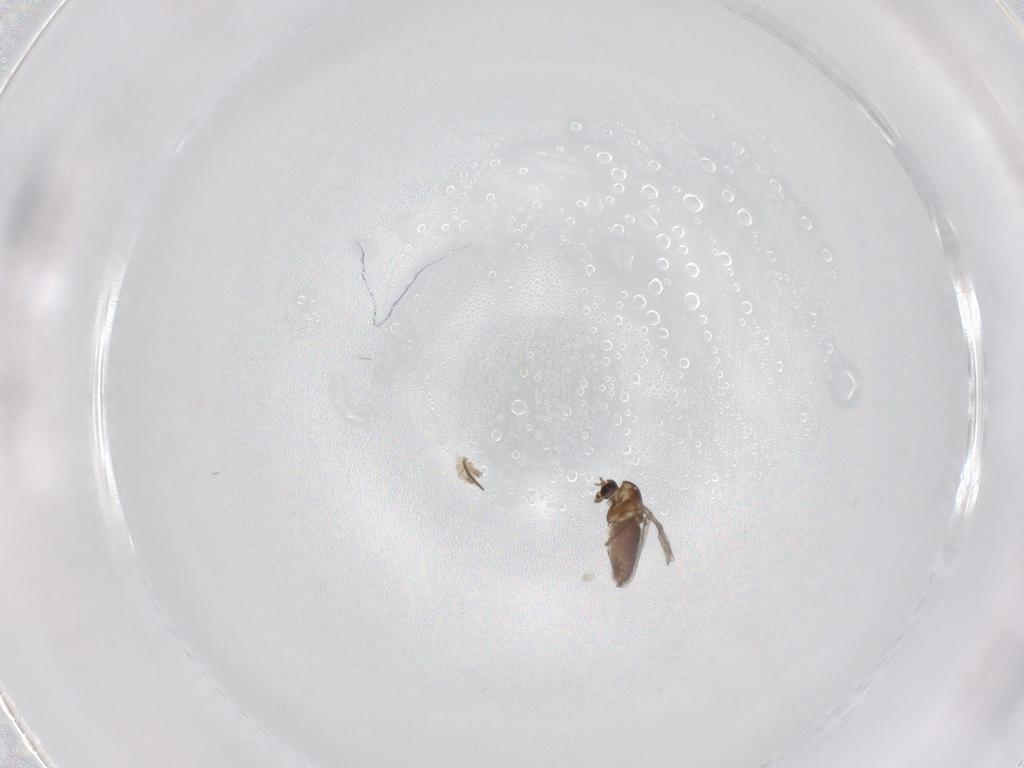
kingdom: Animalia
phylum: Arthropoda
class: Insecta
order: Diptera
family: Chironomidae
